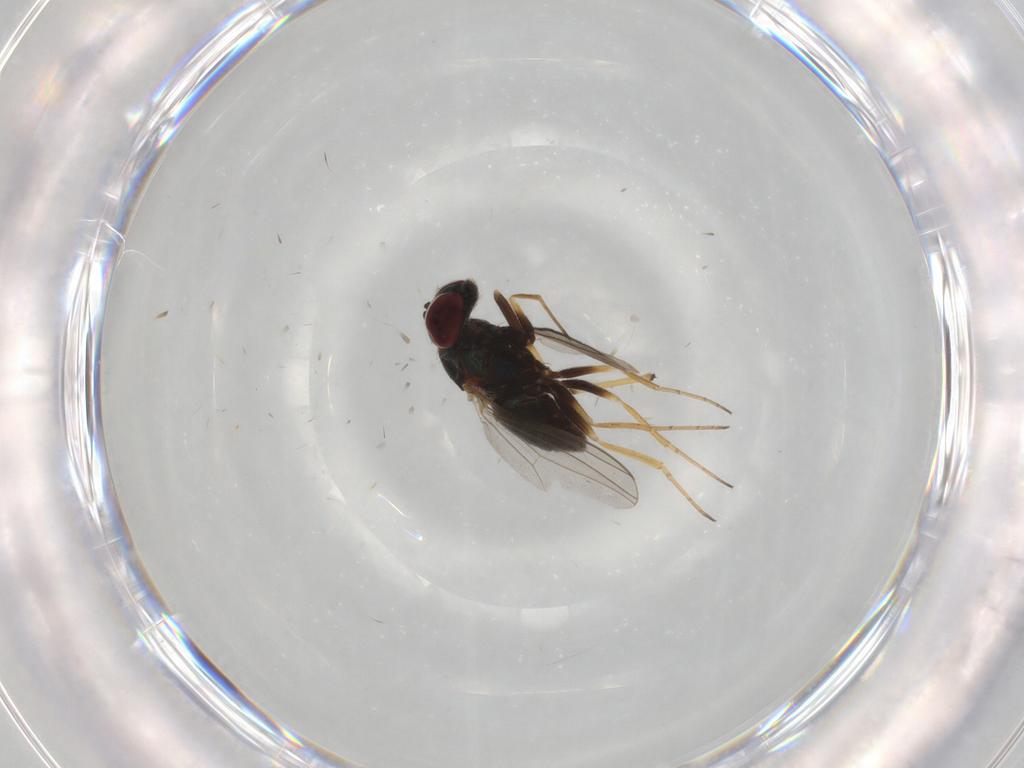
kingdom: Animalia
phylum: Arthropoda
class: Insecta
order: Diptera
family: Dolichopodidae
